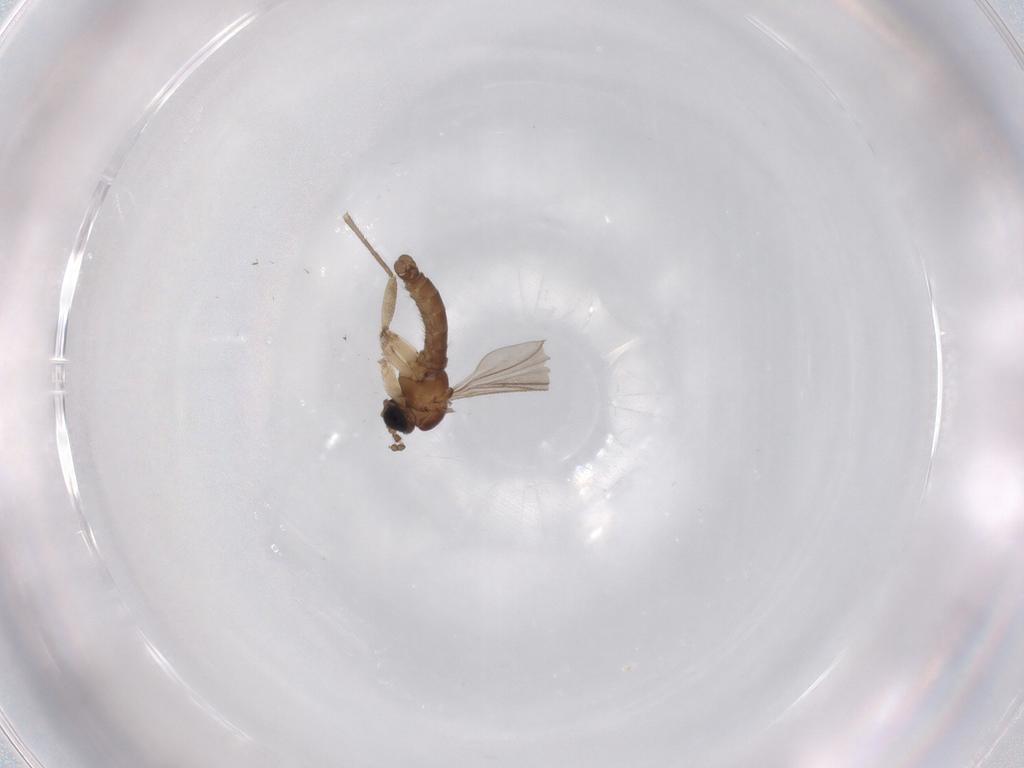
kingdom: Animalia
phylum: Arthropoda
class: Insecta
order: Diptera
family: Sciaridae
